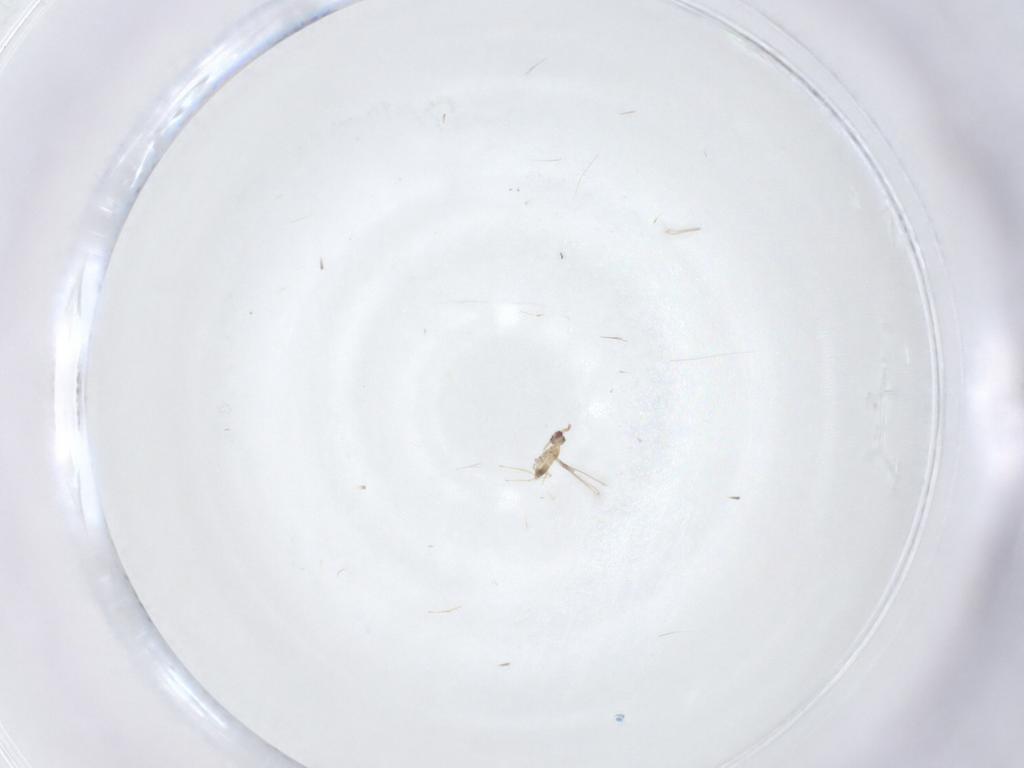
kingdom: Animalia
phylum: Arthropoda
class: Insecta
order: Hymenoptera
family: Mymaridae
